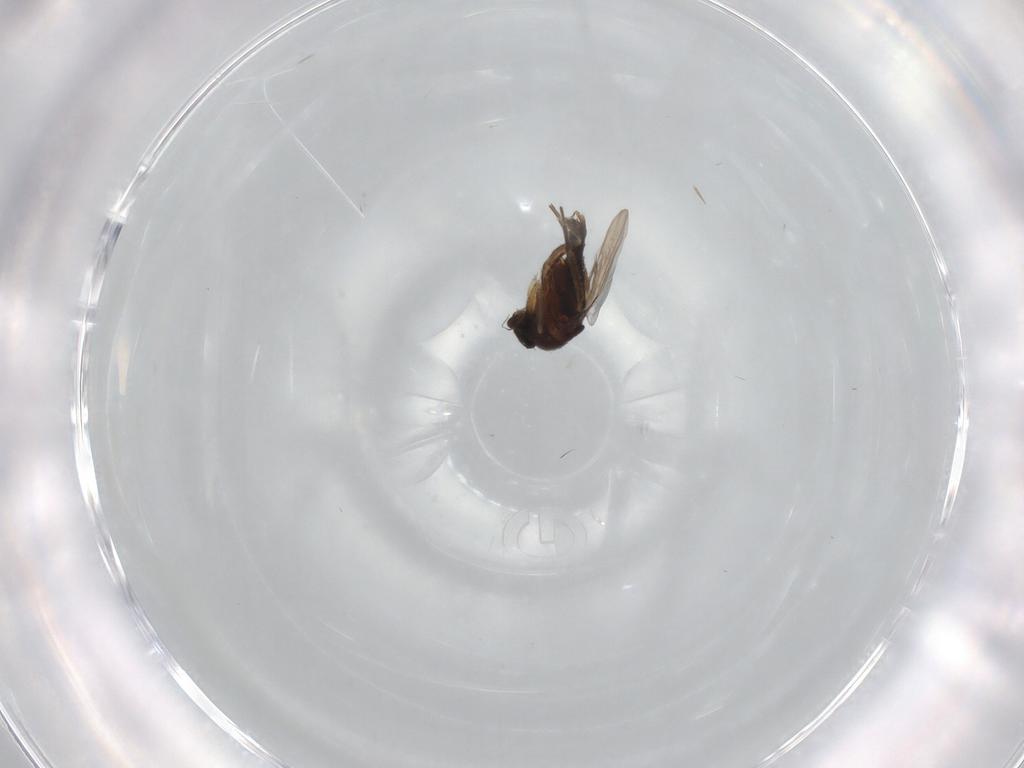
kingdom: Animalia
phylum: Arthropoda
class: Insecta
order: Diptera
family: Phoridae
